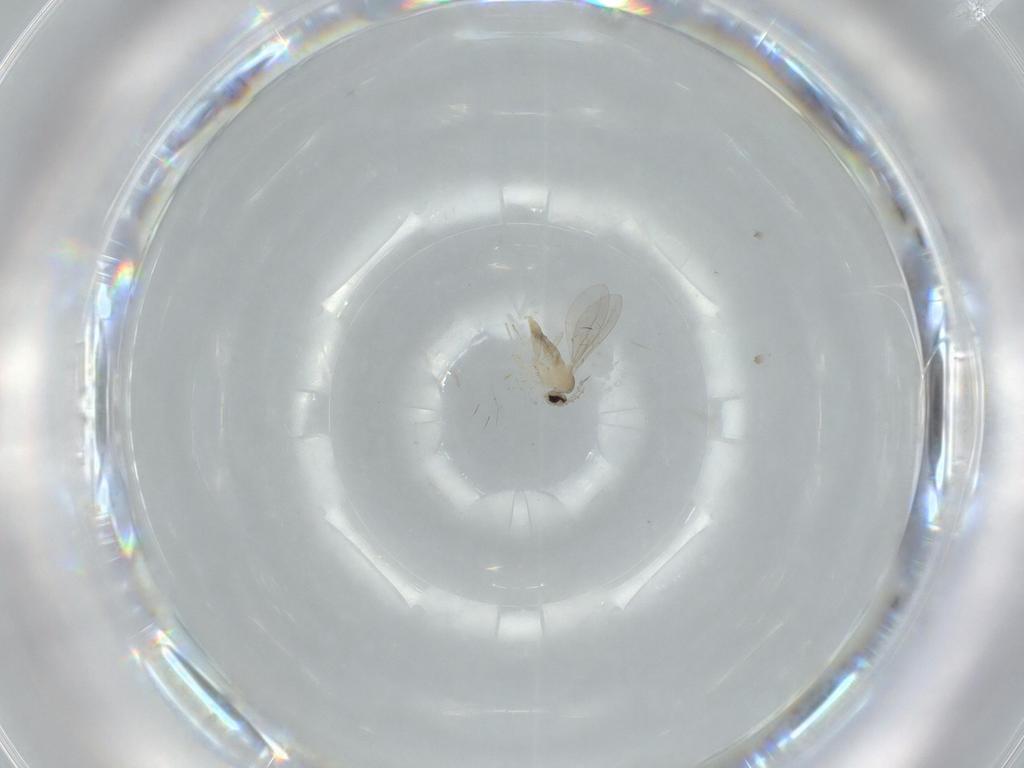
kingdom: Animalia
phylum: Arthropoda
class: Insecta
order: Diptera
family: Cecidomyiidae
